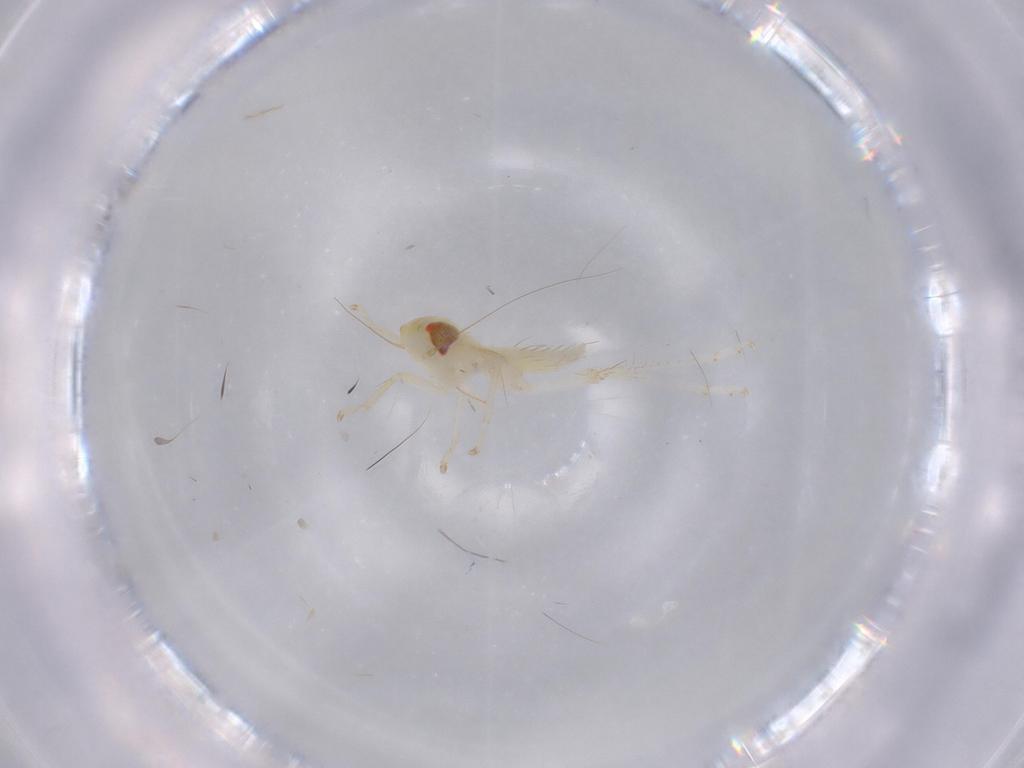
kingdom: Animalia
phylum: Arthropoda
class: Insecta
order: Hemiptera
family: Cicadellidae
